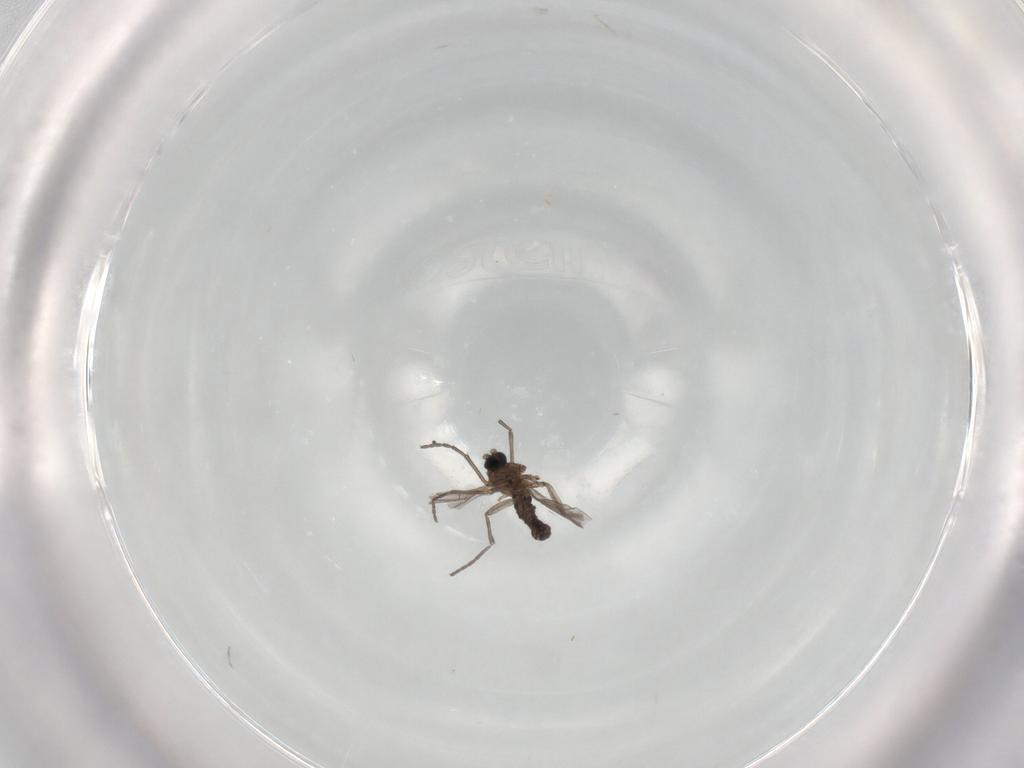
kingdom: Animalia
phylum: Arthropoda
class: Insecta
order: Diptera
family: Sciaridae
